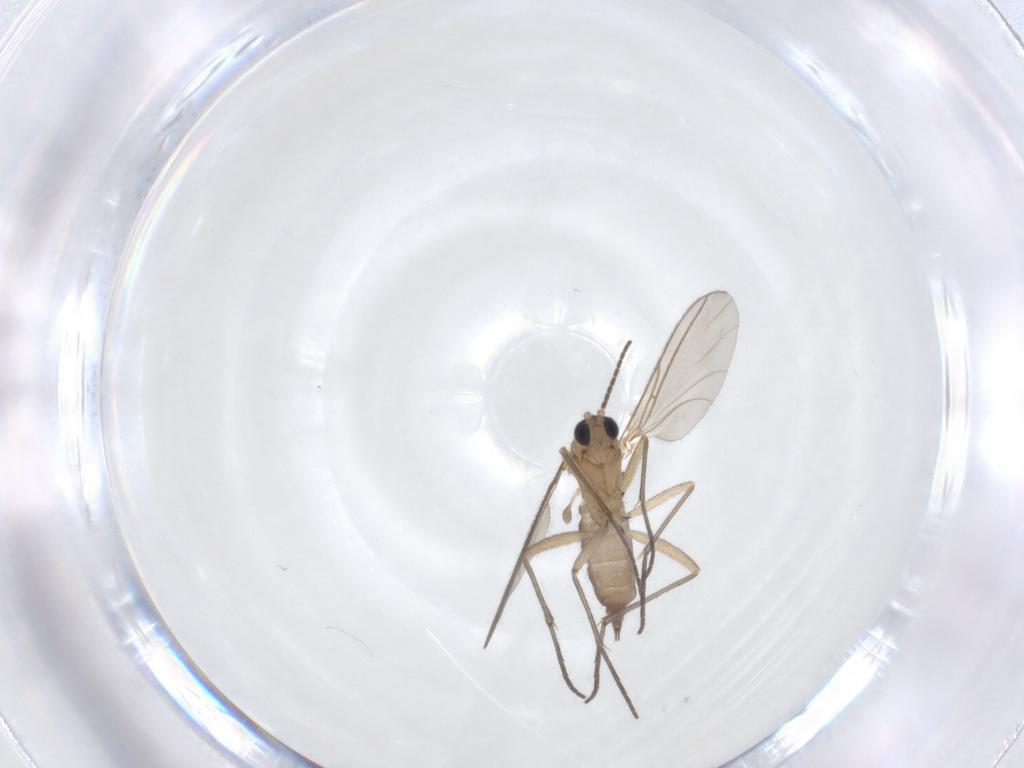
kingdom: Animalia
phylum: Arthropoda
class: Insecta
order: Diptera
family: Sciaridae
